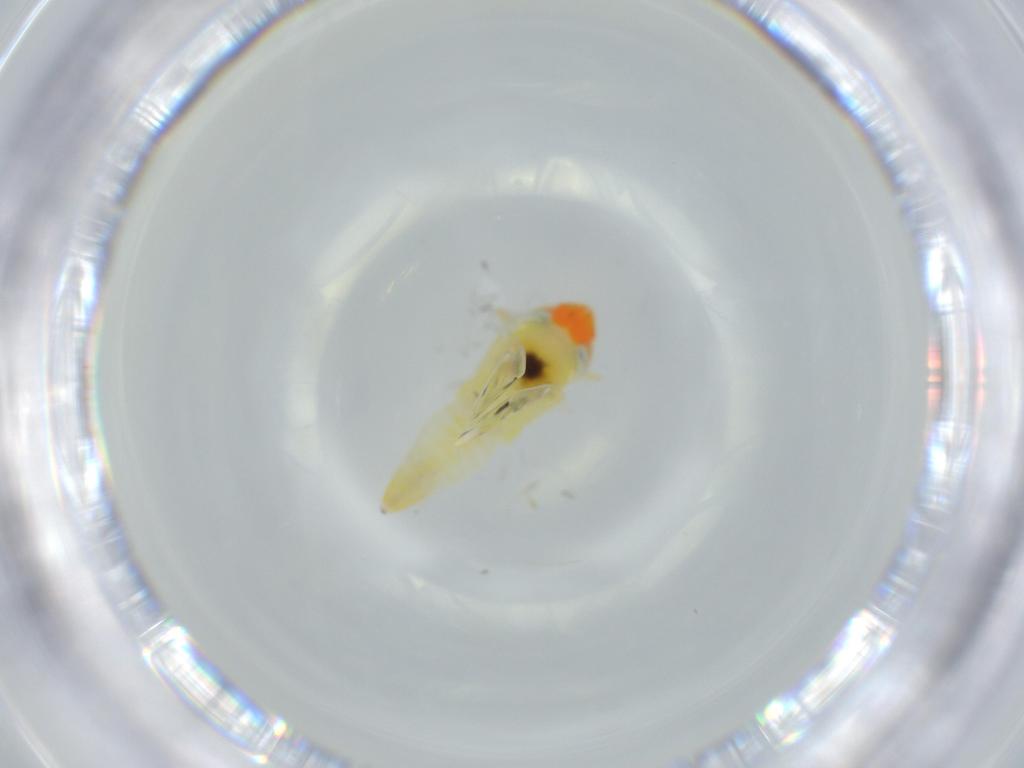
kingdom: Animalia
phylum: Arthropoda
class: Insecta
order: Hemiptera
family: Cicadellidae
